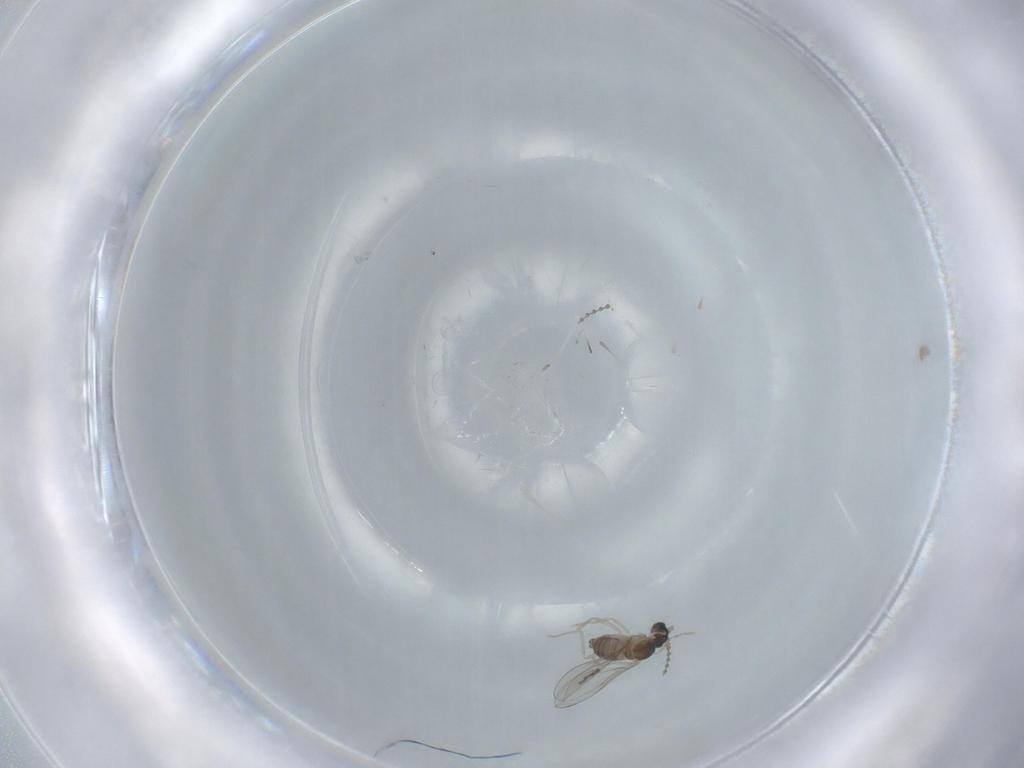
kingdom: Animalia
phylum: Arthropoda
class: Insecta
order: Diptera
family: Cecidomyiidae
